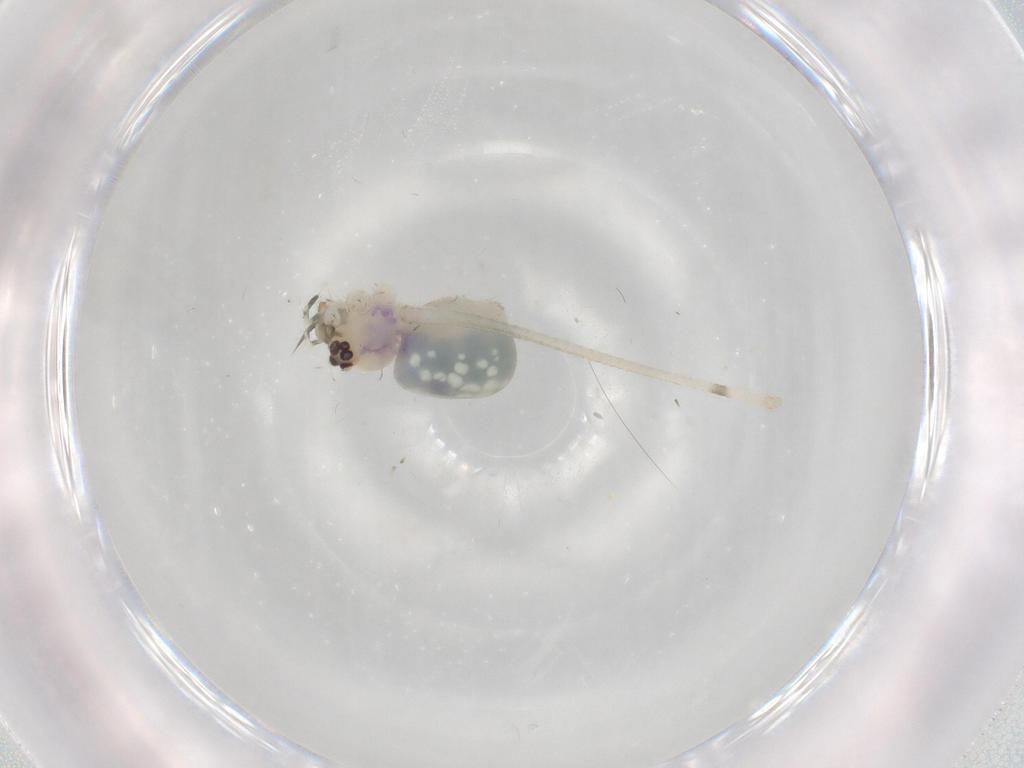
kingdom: Animalia
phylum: Arthropoda
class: Arachnida
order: Araneae
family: Pholcidae
